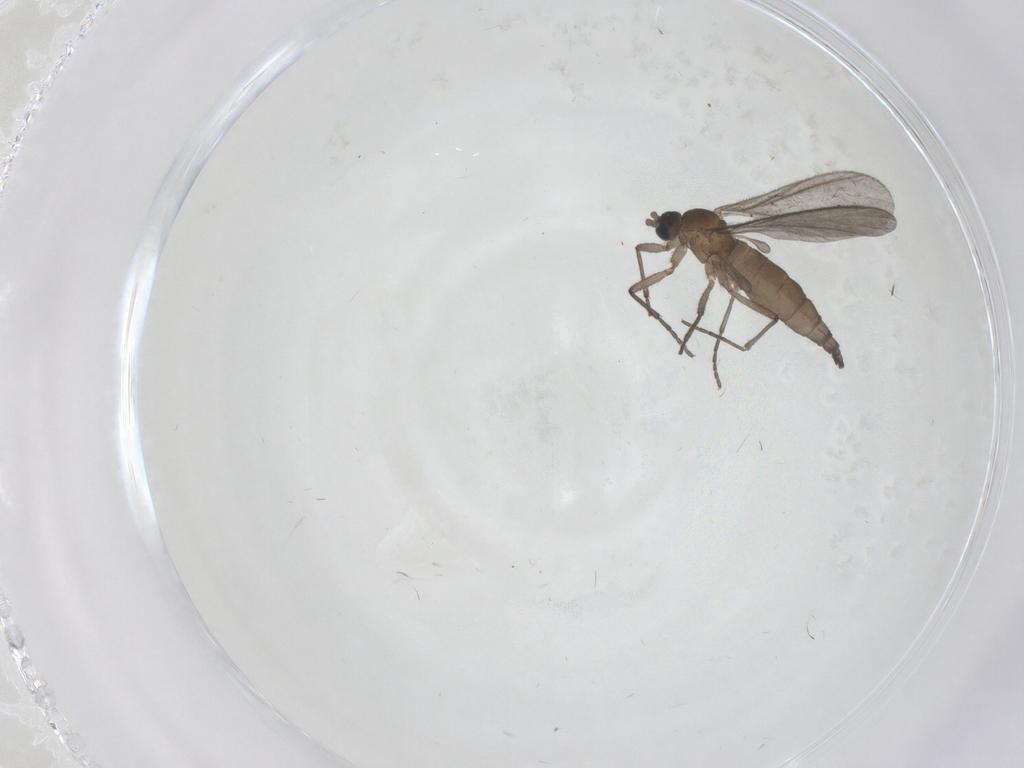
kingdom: Animalia
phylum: Arthropoda
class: Insecta
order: Diptera
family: Sciaridae
